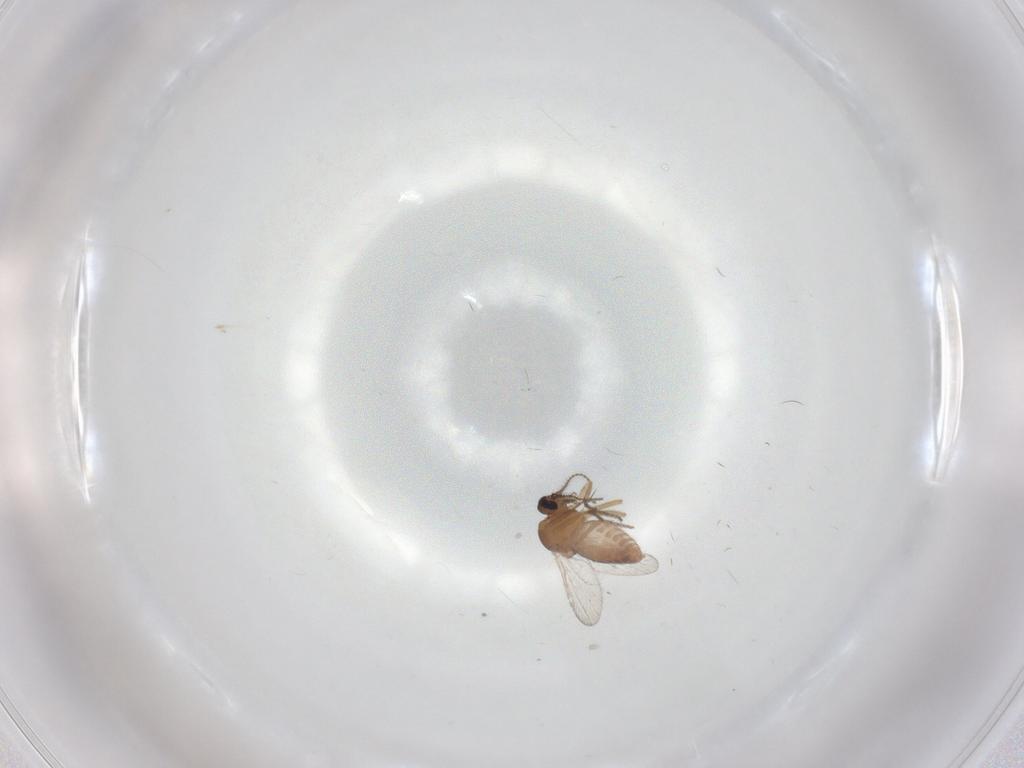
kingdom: Animalia
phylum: Arthropoda
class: Insecta
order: Diptera
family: Ceratopogonidae
